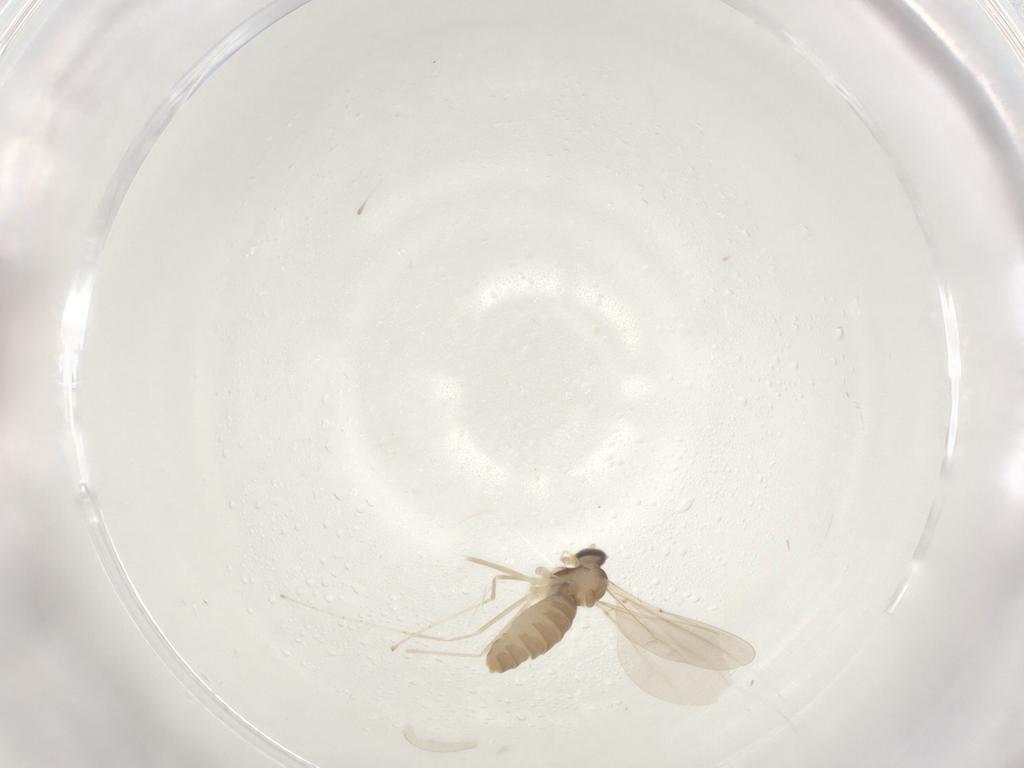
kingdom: Animalia
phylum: Arthropoda
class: Insecta
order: Diptera
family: Cecidomyiidae
